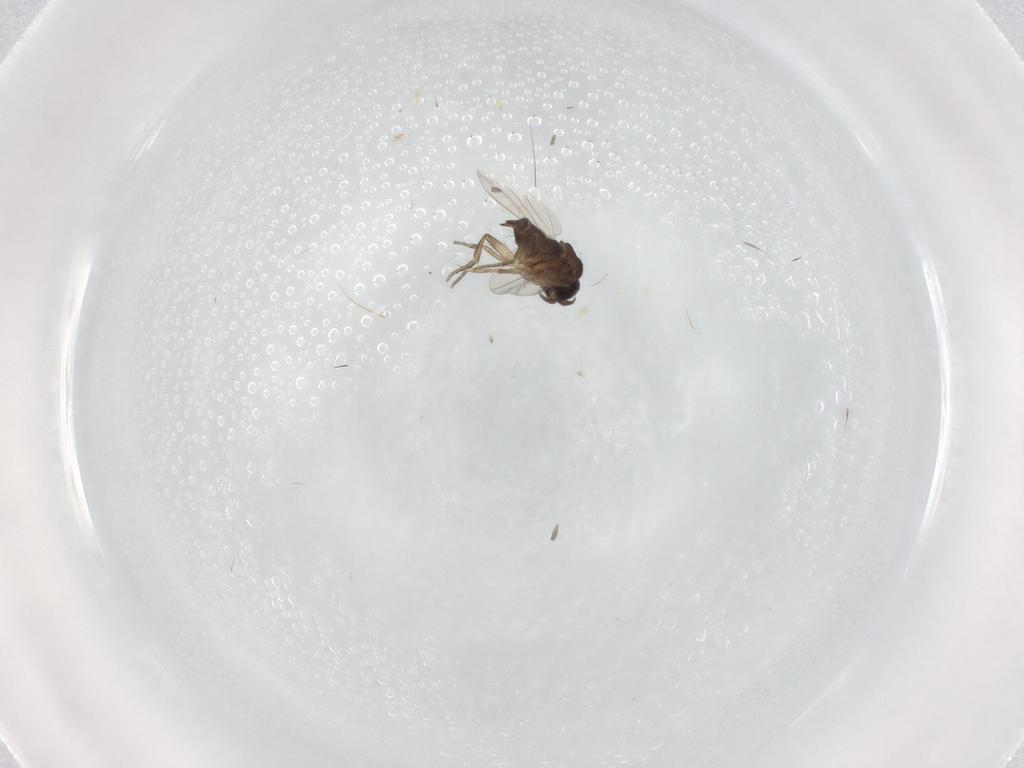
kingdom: Animalia
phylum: Arthropoda
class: Insecta
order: Diptera
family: Phoridae
